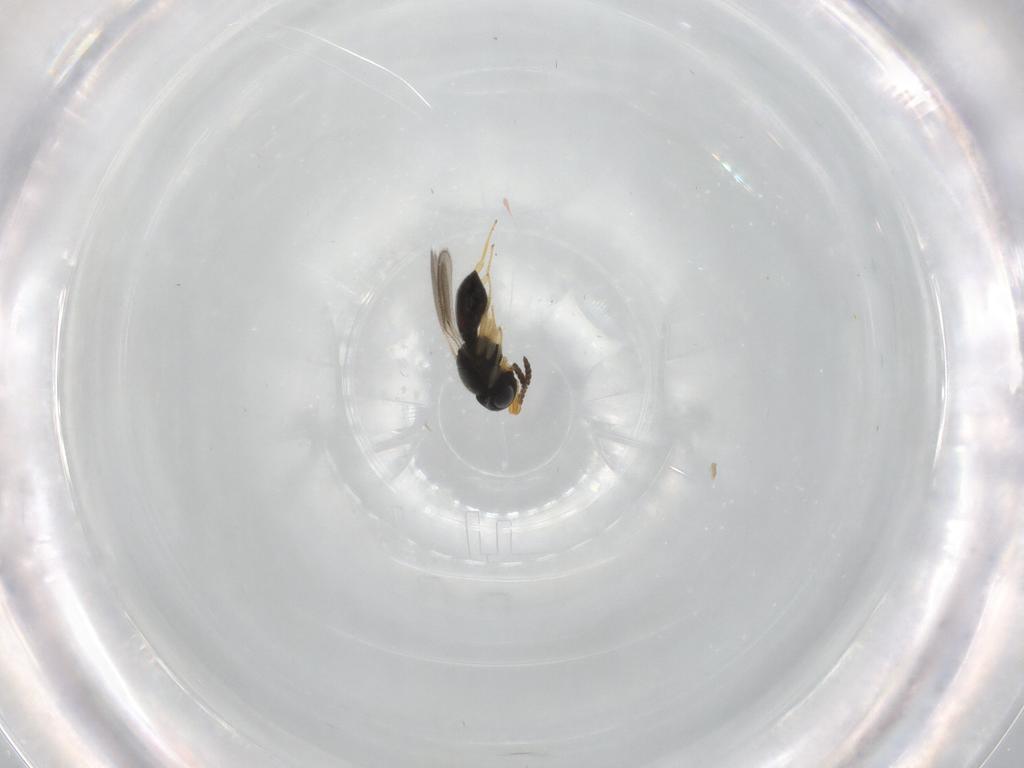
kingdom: Animalia
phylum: Arthropoda
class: Insecta
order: Hymenoptera
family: Scelionidae
